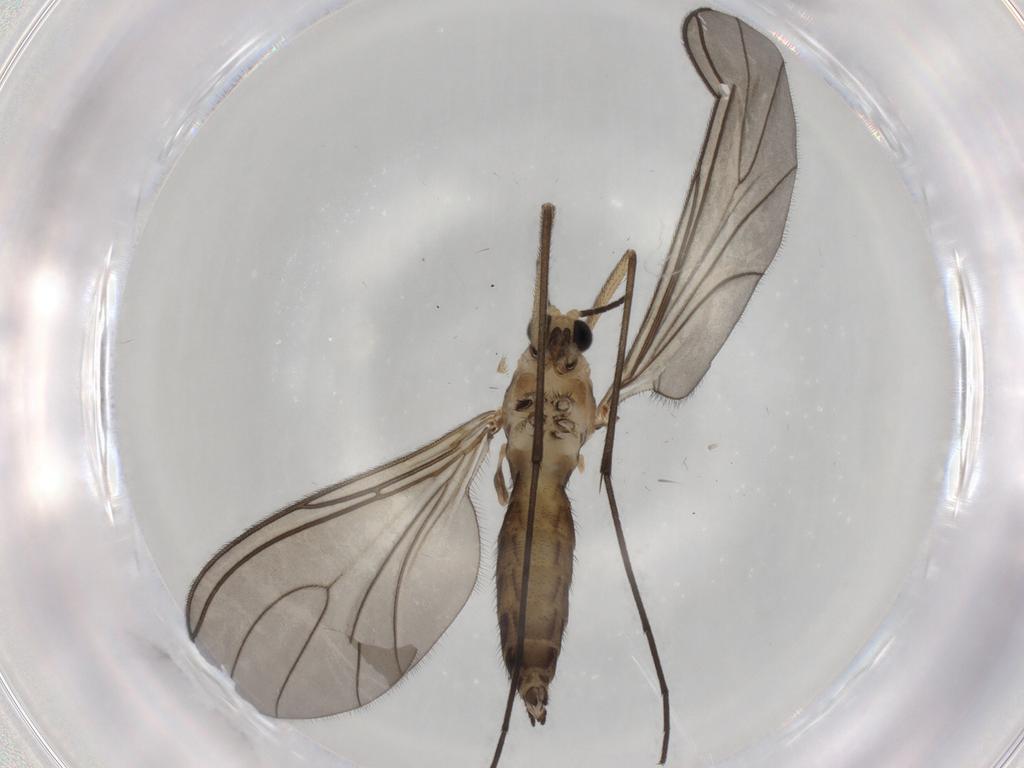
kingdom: Animalia
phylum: Arthropoda
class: Insecta
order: Diptera
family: Sciaridae
